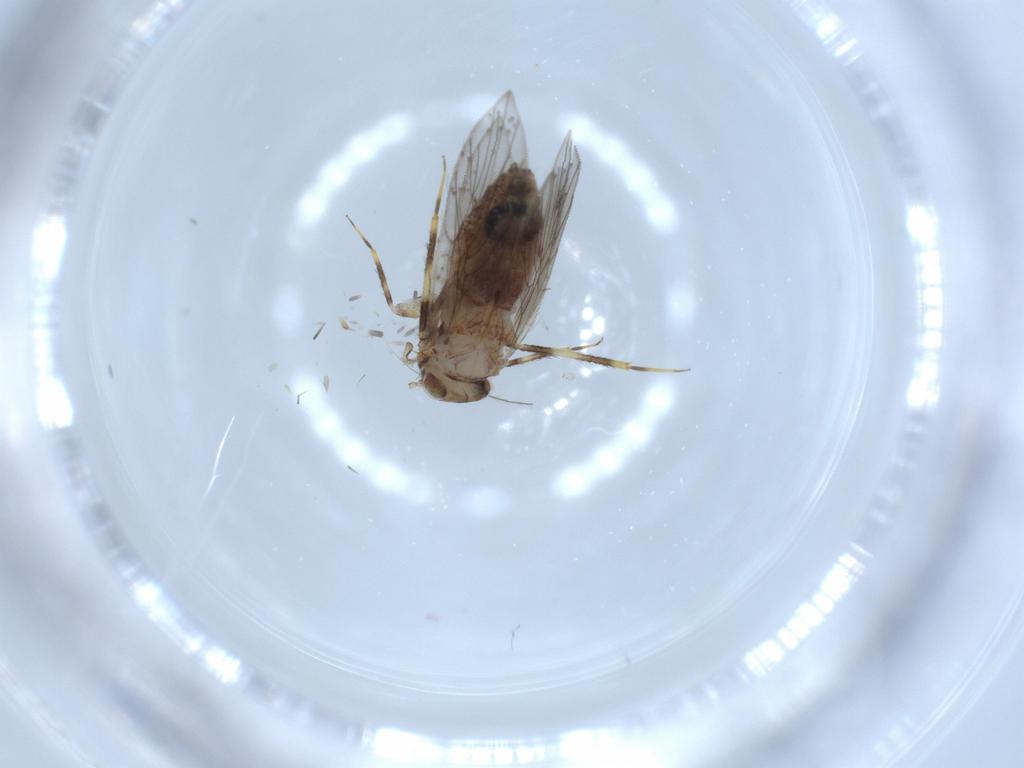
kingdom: Animalia
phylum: Arthropoda
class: Insecta
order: Psocodea
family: Lepidopsocidae
